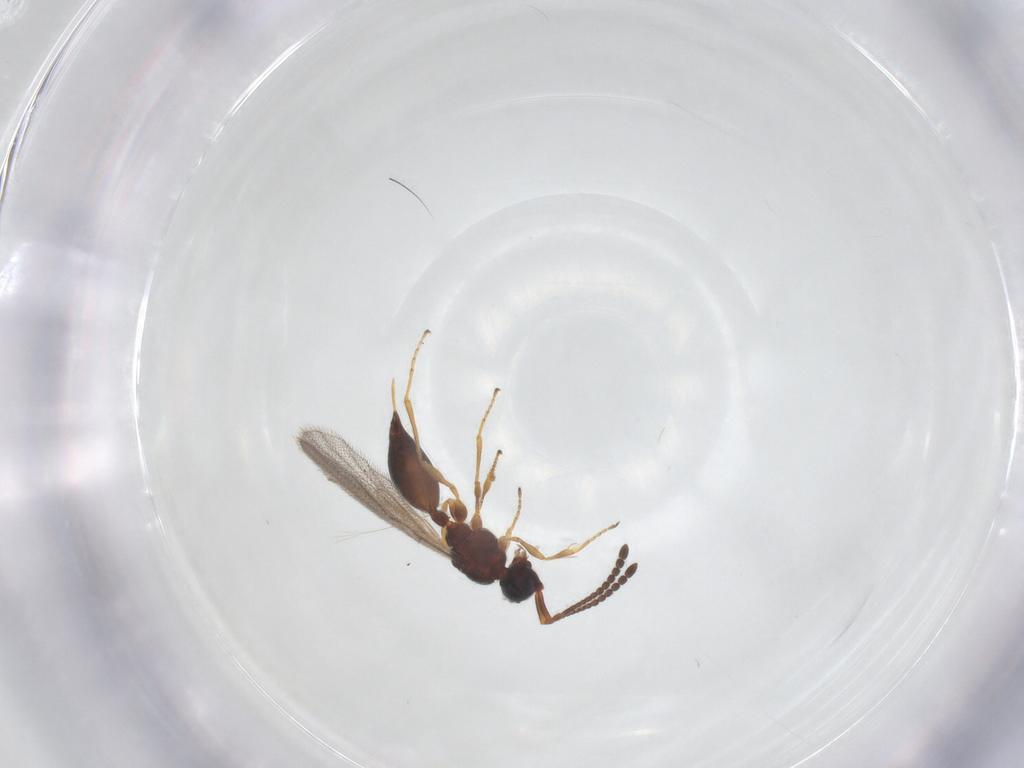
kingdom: Animalia
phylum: Arthropoda
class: Insecta
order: Hymenoptera
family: Diapriidae
